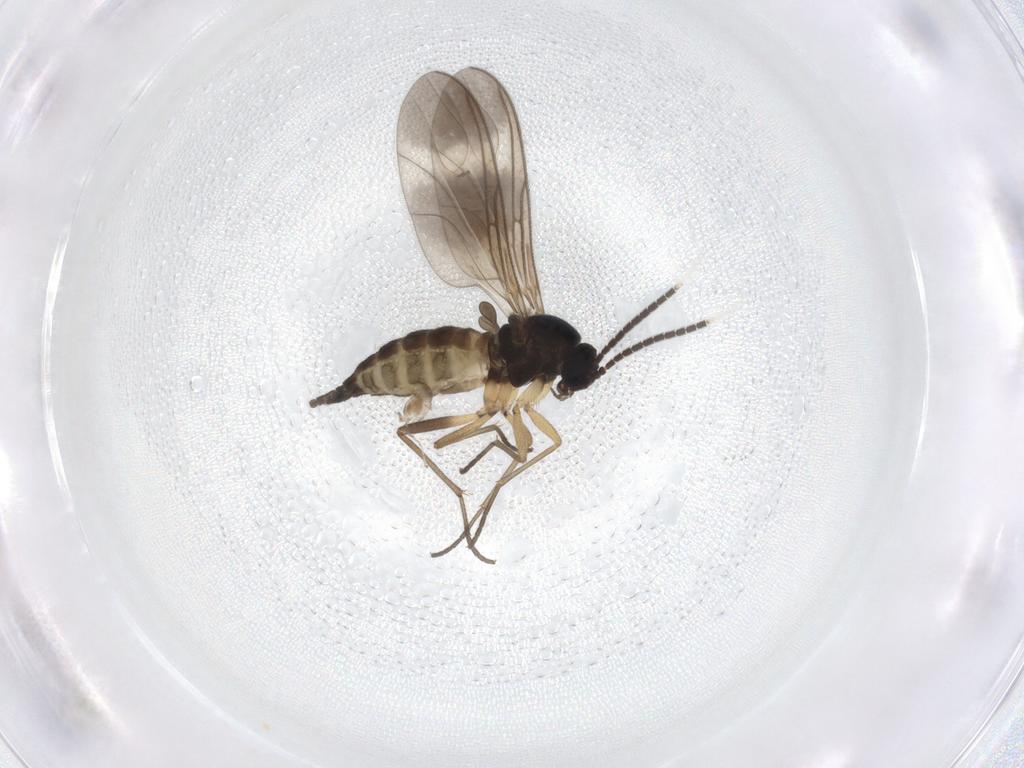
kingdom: Animalia
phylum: Arthropoda
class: Insecta
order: Diptera
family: Sciaridae
